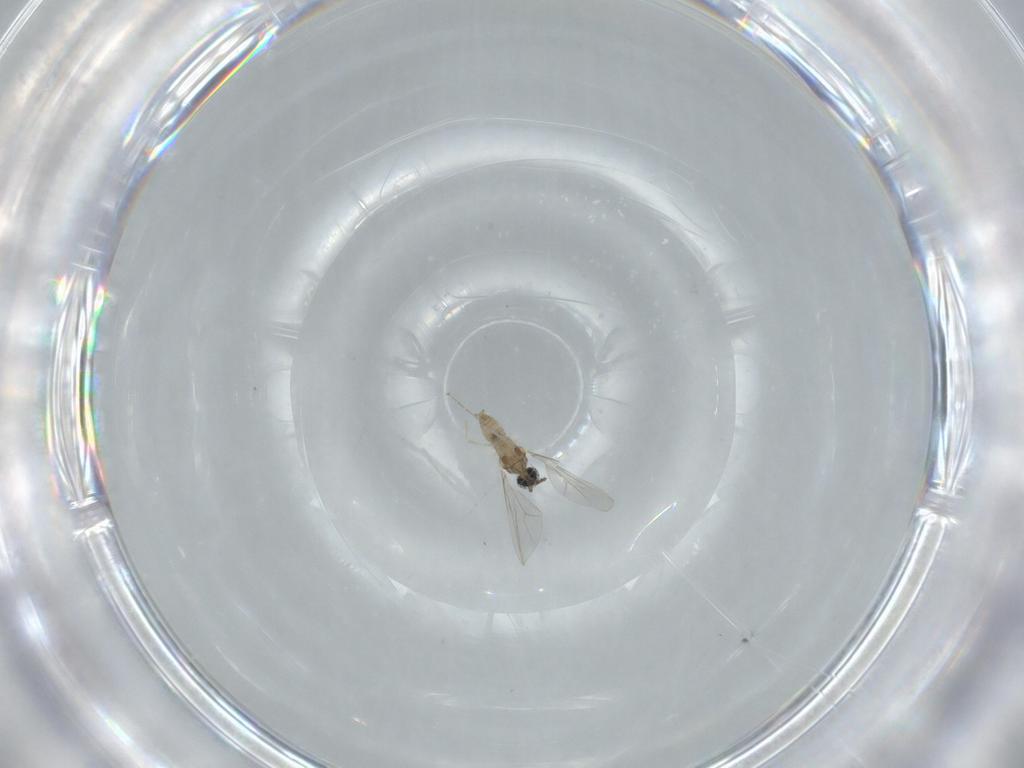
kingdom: Animalia
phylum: Arthropoda
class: Insecta
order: Diptera
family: Cecidomyiidae
